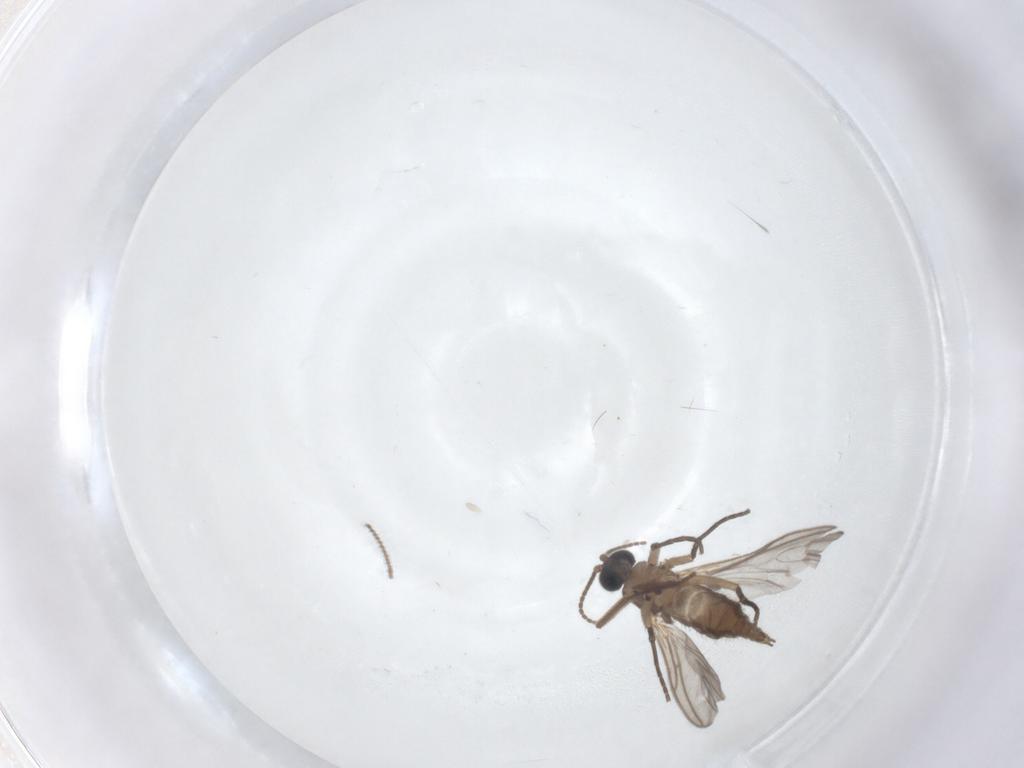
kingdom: Animalia
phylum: Arthropoda
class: Insecta
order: Diptera
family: Sciaridae
